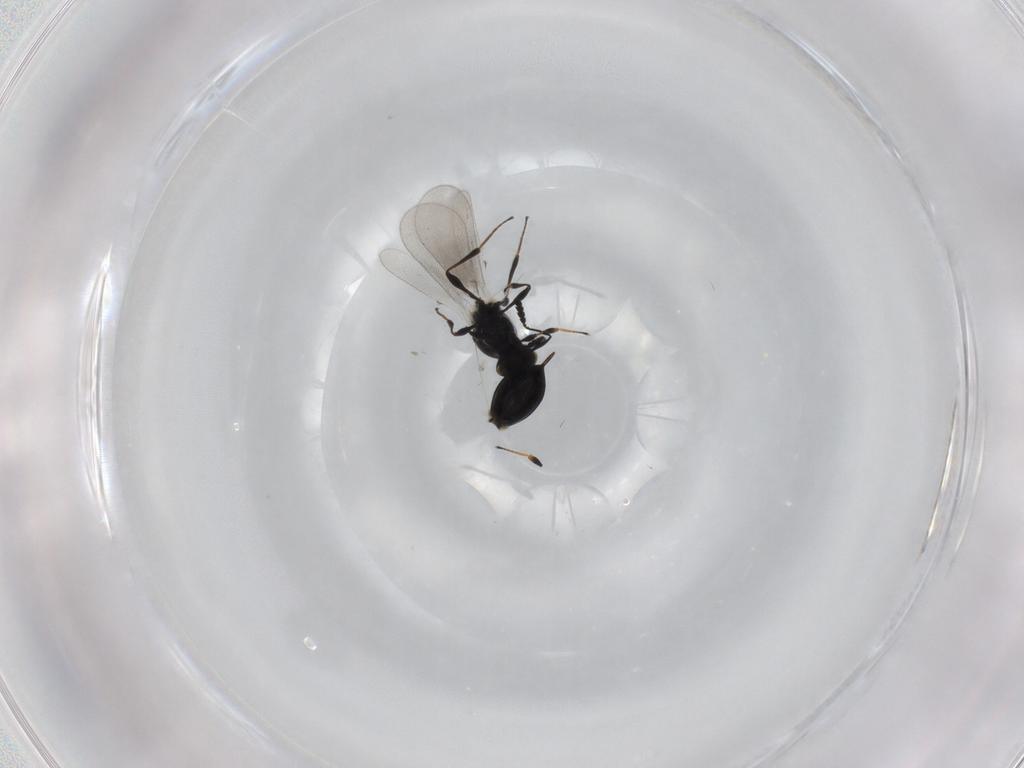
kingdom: Animalia
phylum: Arthropoda
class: Insecta
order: Hymenoptera
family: Platygastridae
